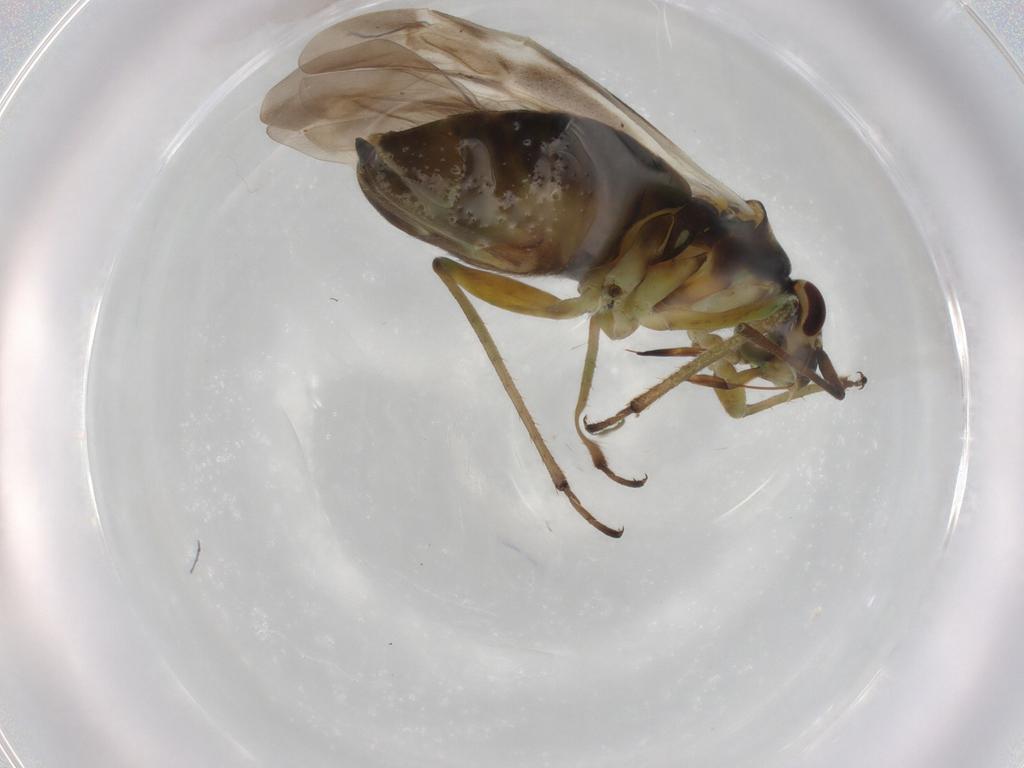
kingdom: Animalia
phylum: Arthropoda
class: Insecta
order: Hemiptera
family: Miridae
